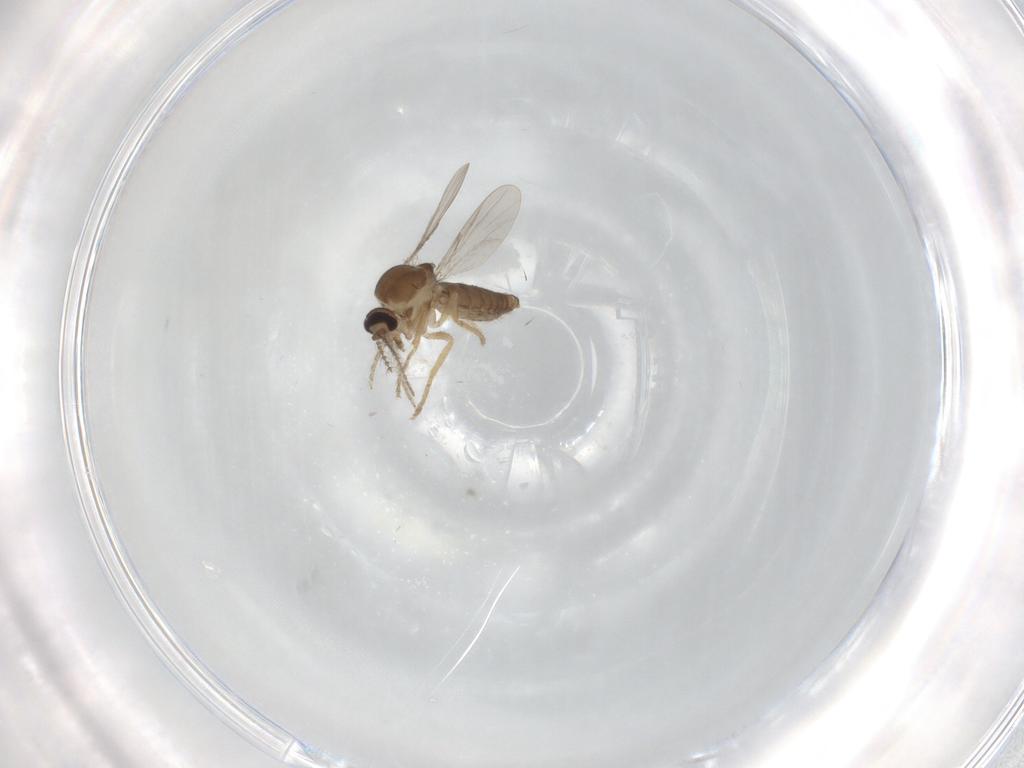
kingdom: Animalia
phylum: Arthropoda
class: Insecta
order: Diptera
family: Ceratopogonidae
